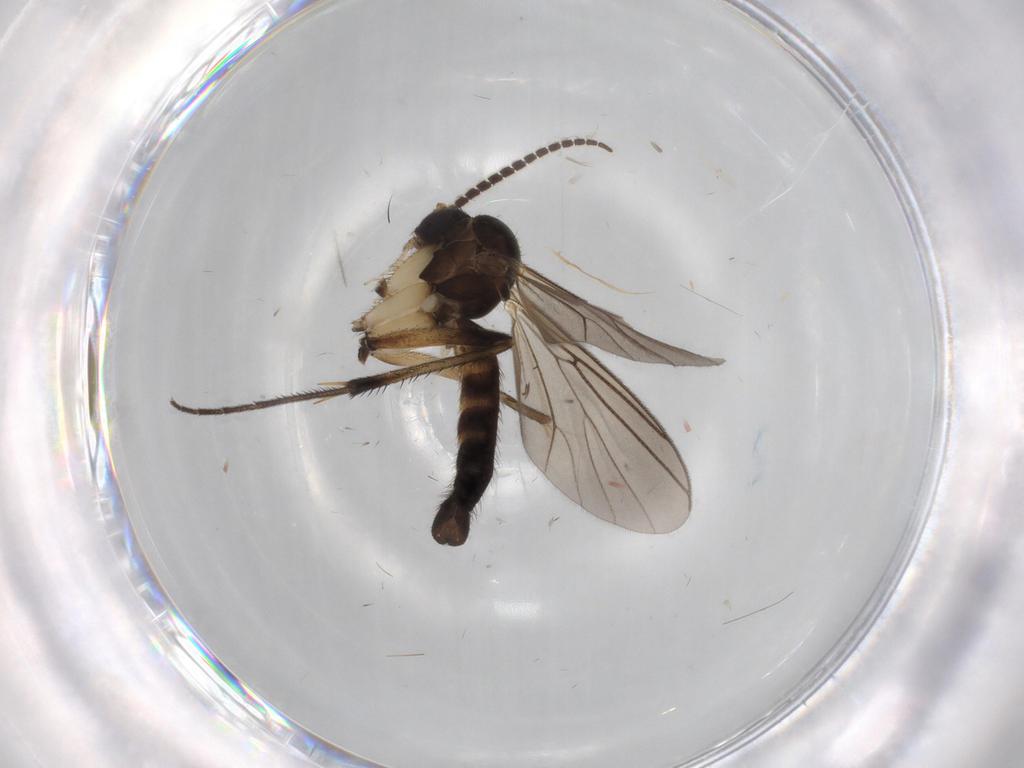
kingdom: Animalia
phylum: Arthropoda
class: Insecta
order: Diptera
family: Mycetophilidae
